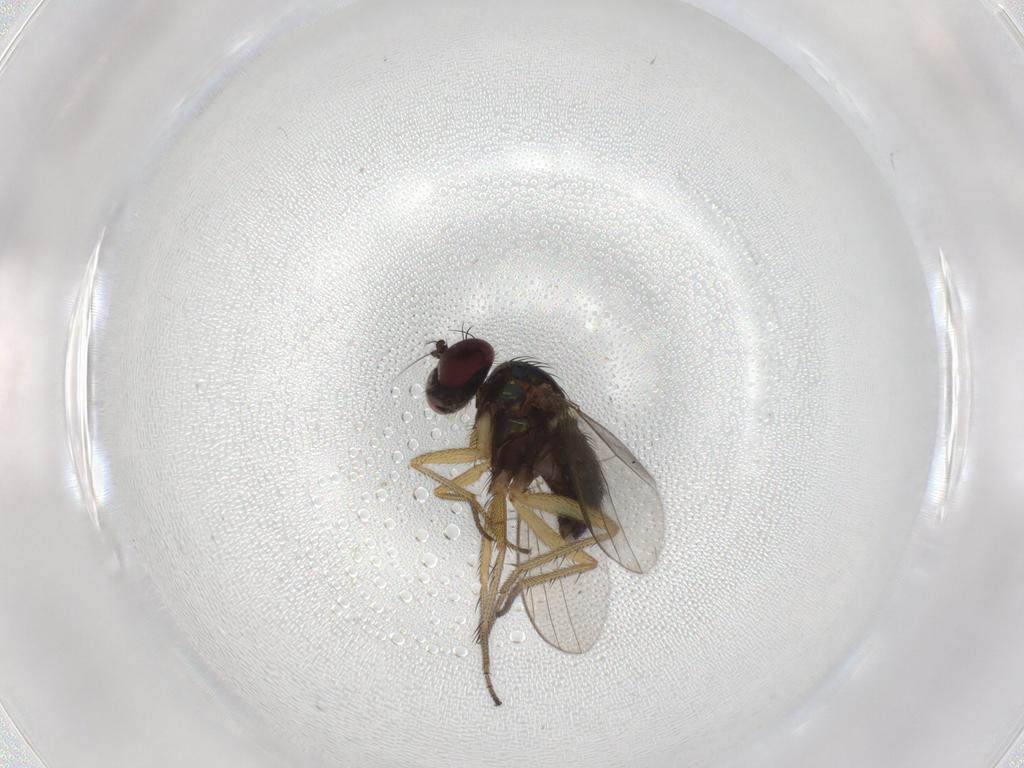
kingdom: Animalia
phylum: Arthropoda
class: Insecta
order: Diptera
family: Dolichopodidae
